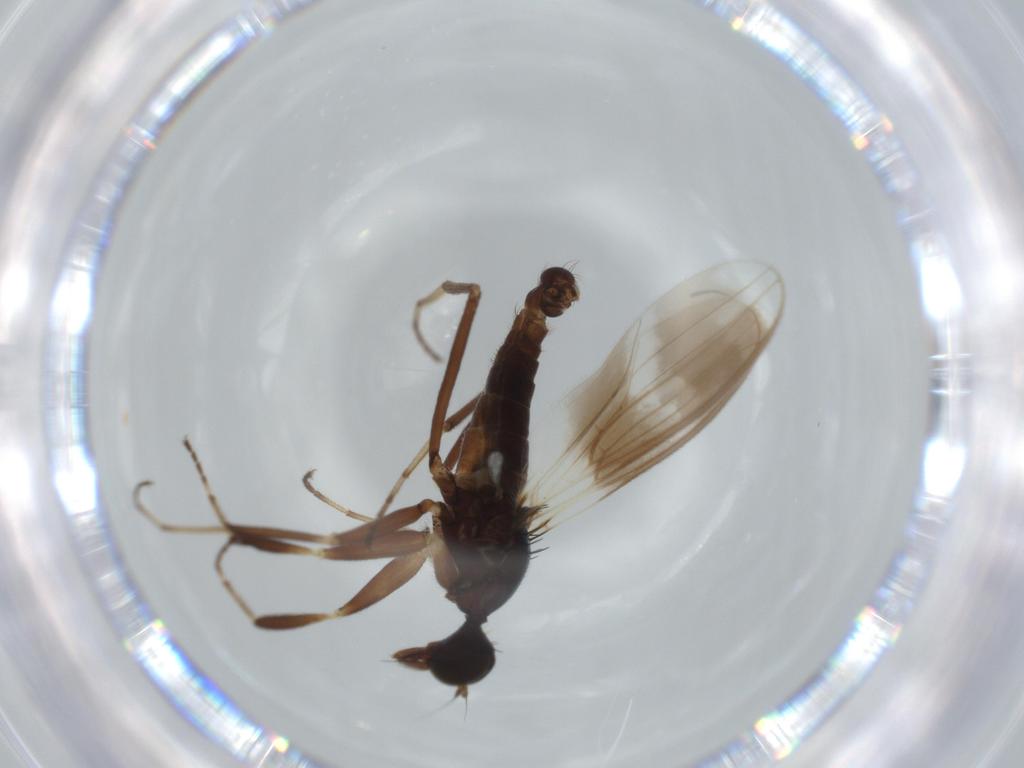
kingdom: Animalia
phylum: Arthropoda
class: Insecta
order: Diptera
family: Hybotidae
